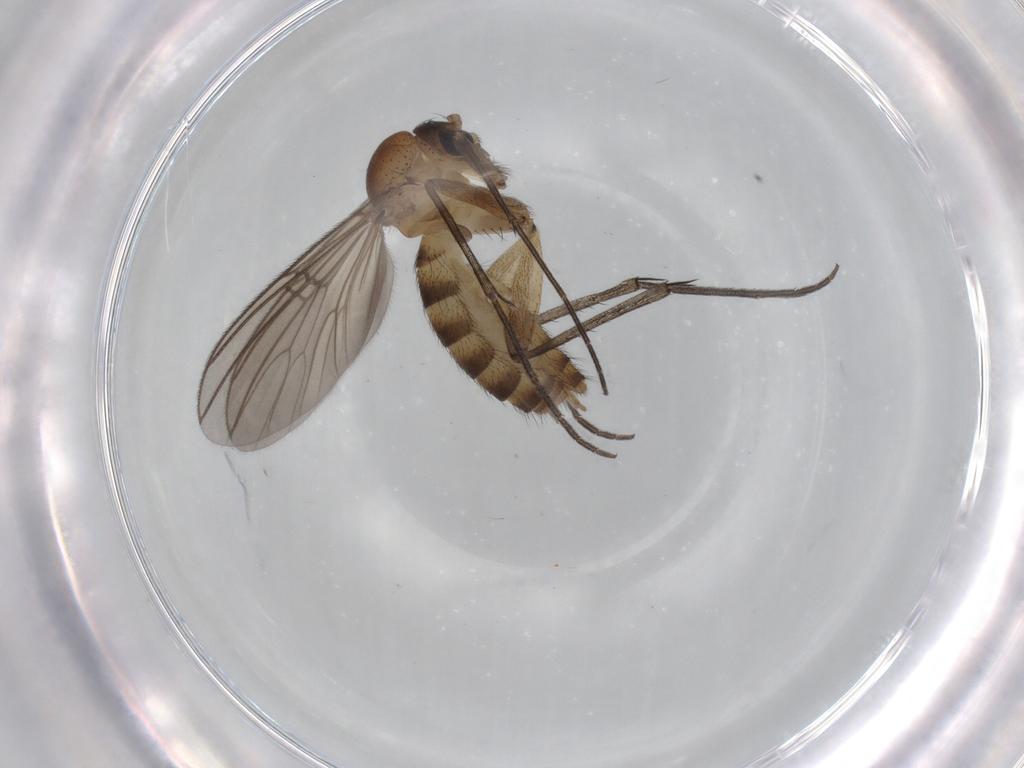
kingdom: Animalia
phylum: Arthropoda
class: Insecta
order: Diptera
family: Mycetophilidae
